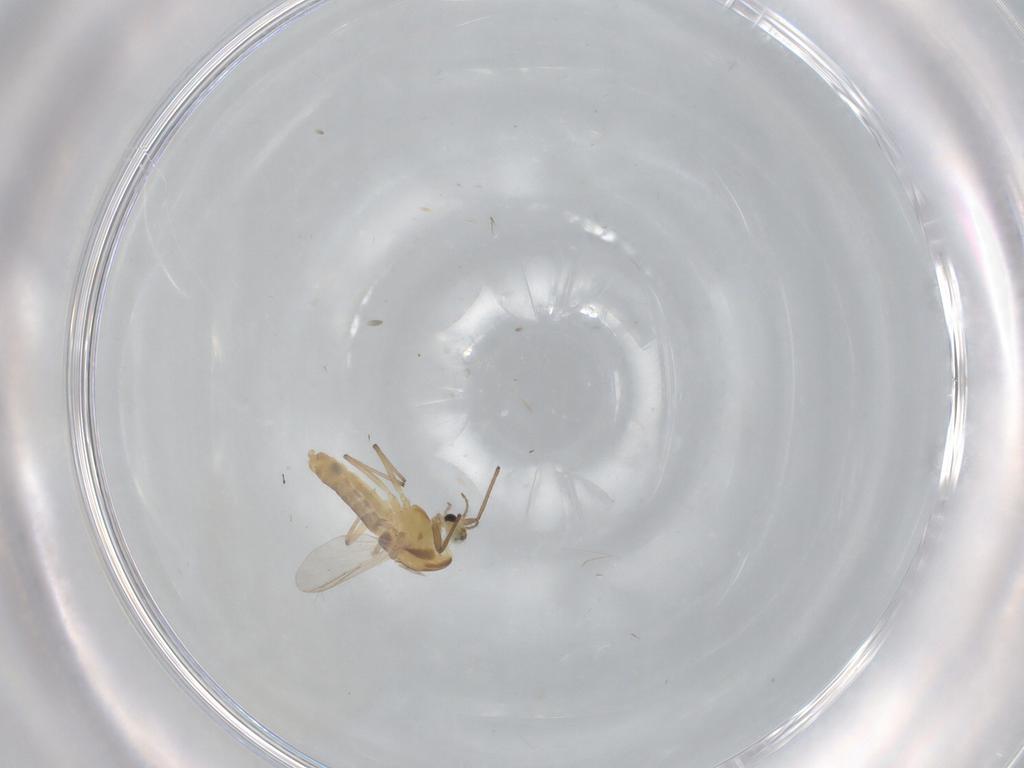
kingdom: Animalia
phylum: Arthropoda
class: Insecta
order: Diptera
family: Chironomidae
